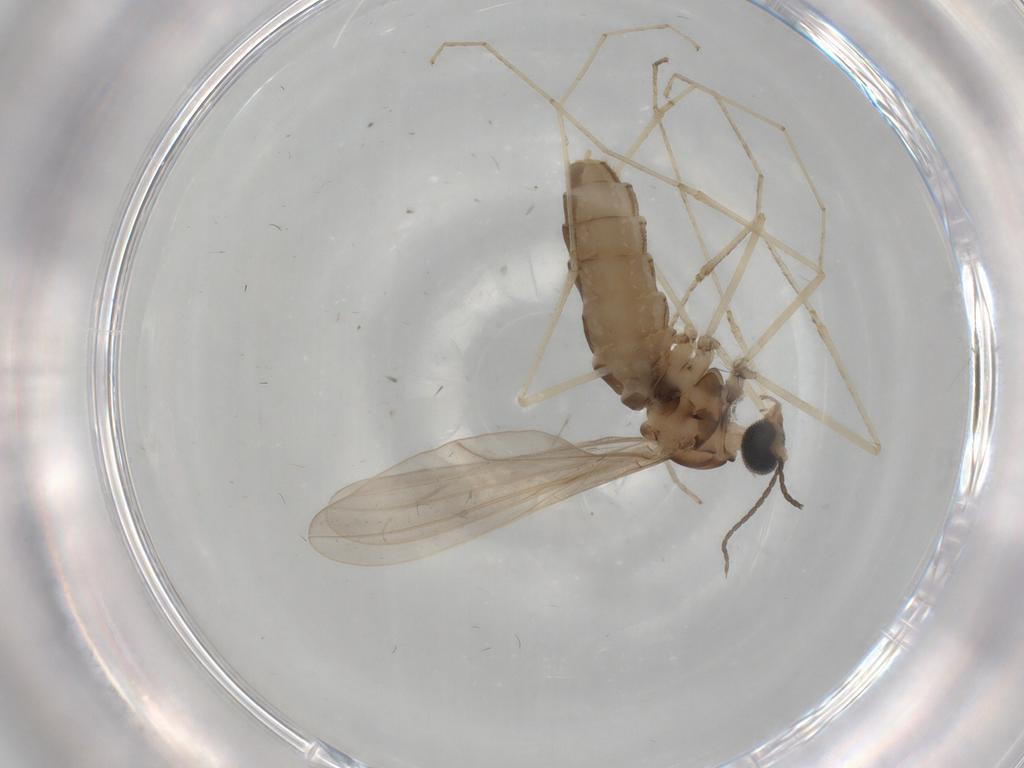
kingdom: Animalia
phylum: Arthropoda
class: Insecta
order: Diptera
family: Cecidomyiidae
